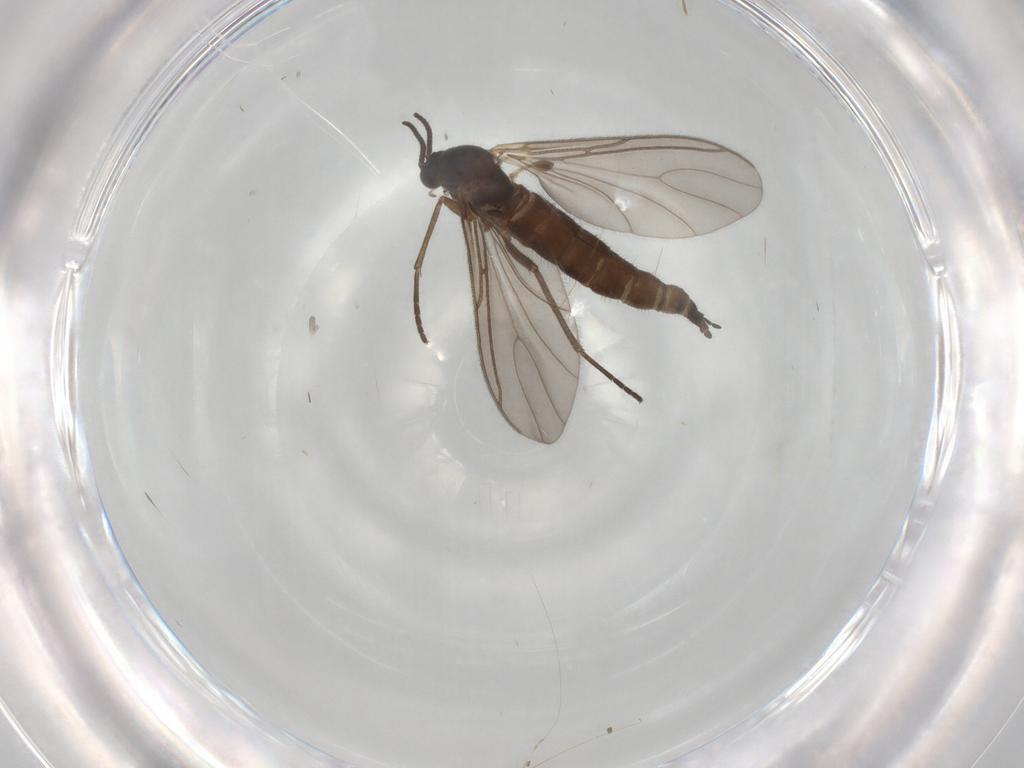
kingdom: Animalia
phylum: Arthropoda
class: Insecta
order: Diptera
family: Sciaridae
